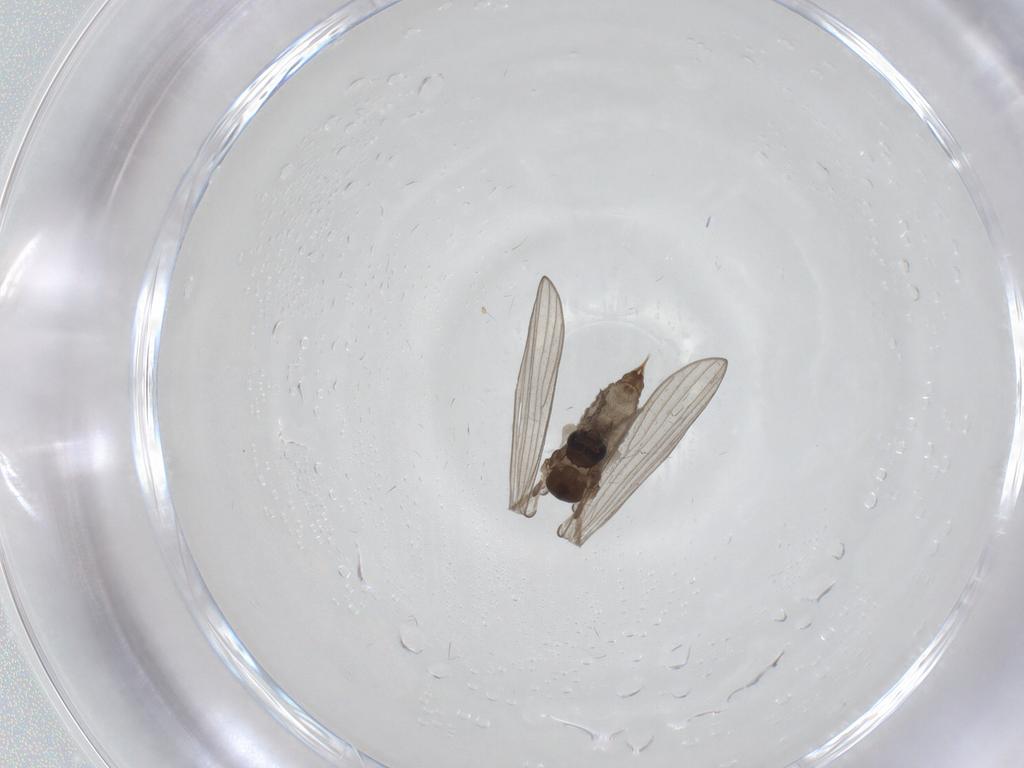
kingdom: Animalia
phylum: Arthropoda
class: Insecta
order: Diptera
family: Psychodidae
